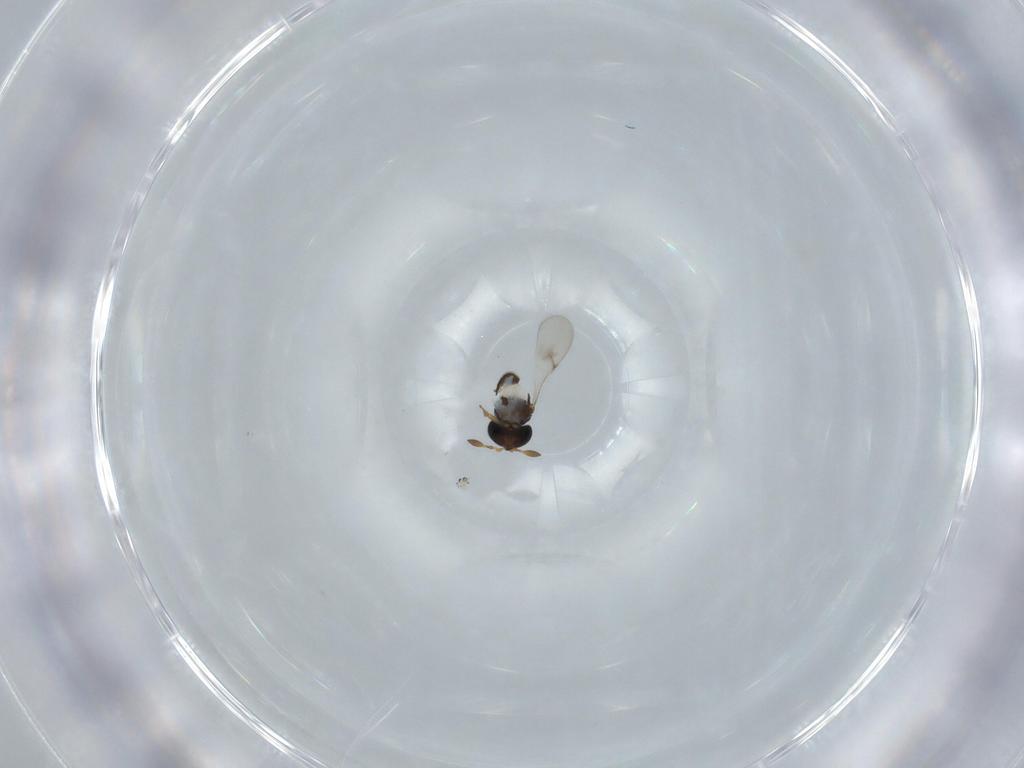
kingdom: Animalia
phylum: Arthropoda
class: Insecta
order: Hymenoptera
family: Scelionidae
